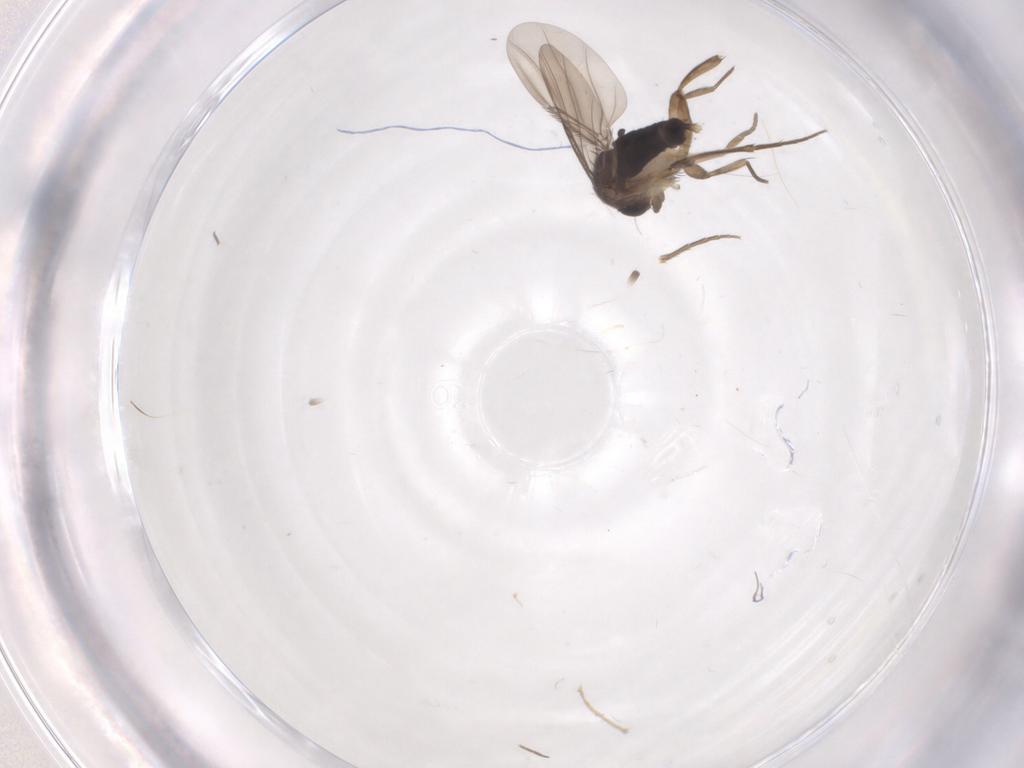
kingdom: Animalia
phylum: Arthropoda
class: Insecta
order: Diptera
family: Phoridae
